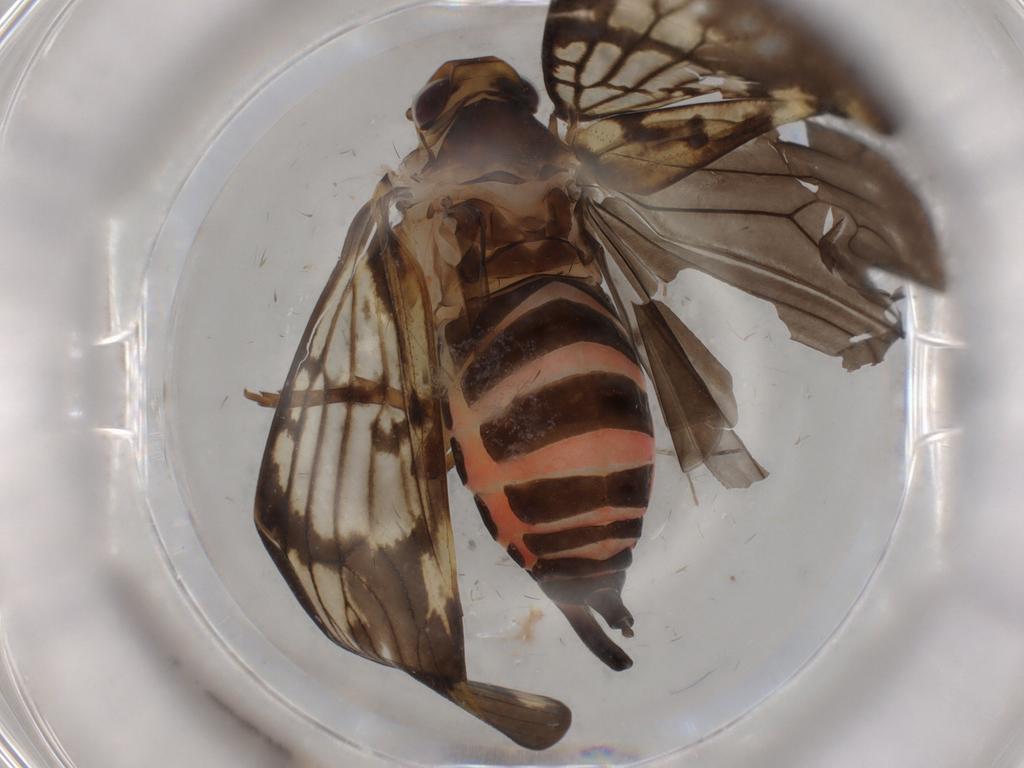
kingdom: Animalia
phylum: Arthropoda
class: Insecta
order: Hemiptera
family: Cixiidae
